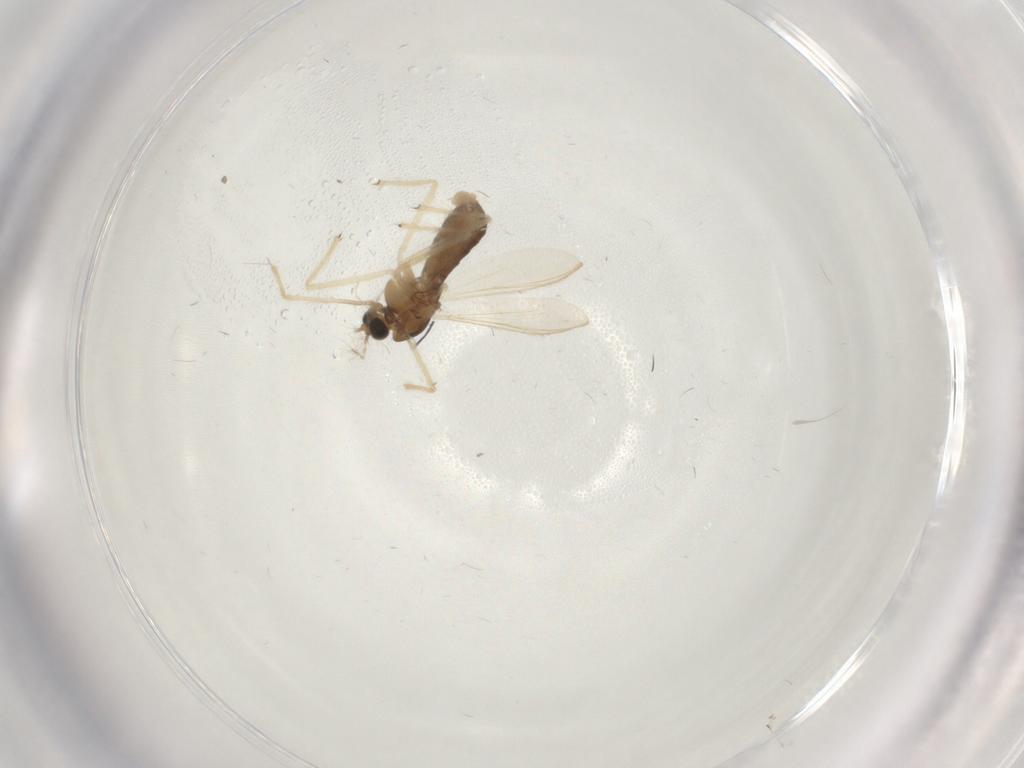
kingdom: Animalia
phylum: Arthropoda
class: Insecta
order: Diptera
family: Chironomidae
